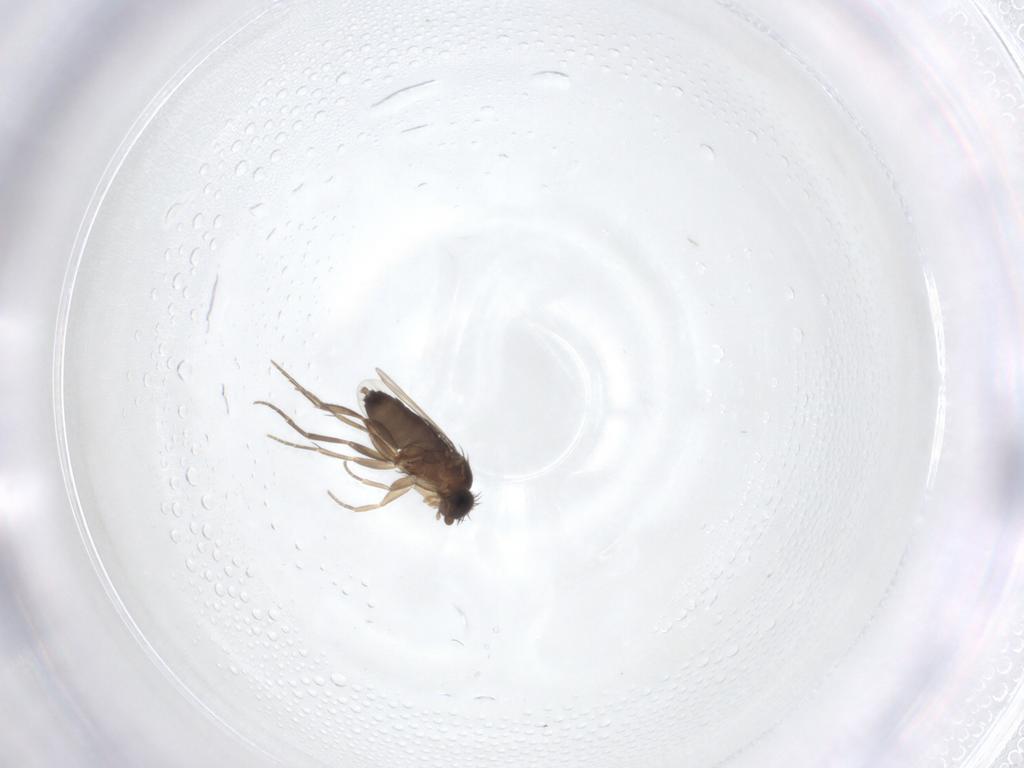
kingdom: Animalia
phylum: Arthropoda
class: Insecta
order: Diptera
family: Phoridae
